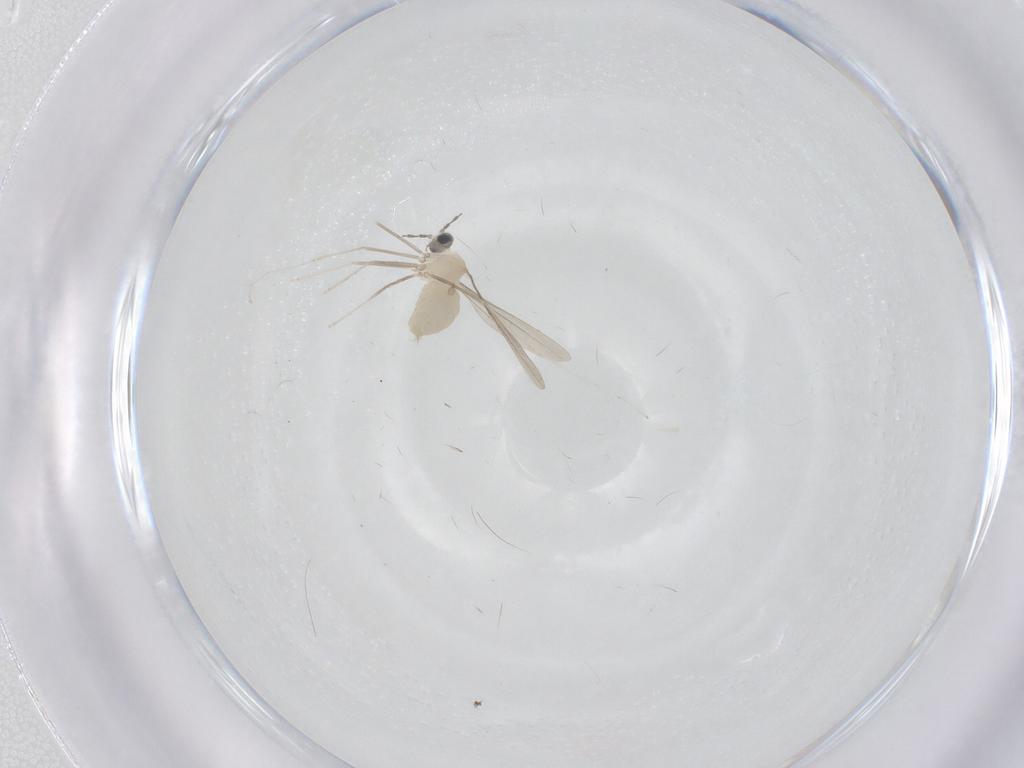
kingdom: Animalia
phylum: Arthropoda
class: Insecta
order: Diptera
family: Cecidomyiidae
